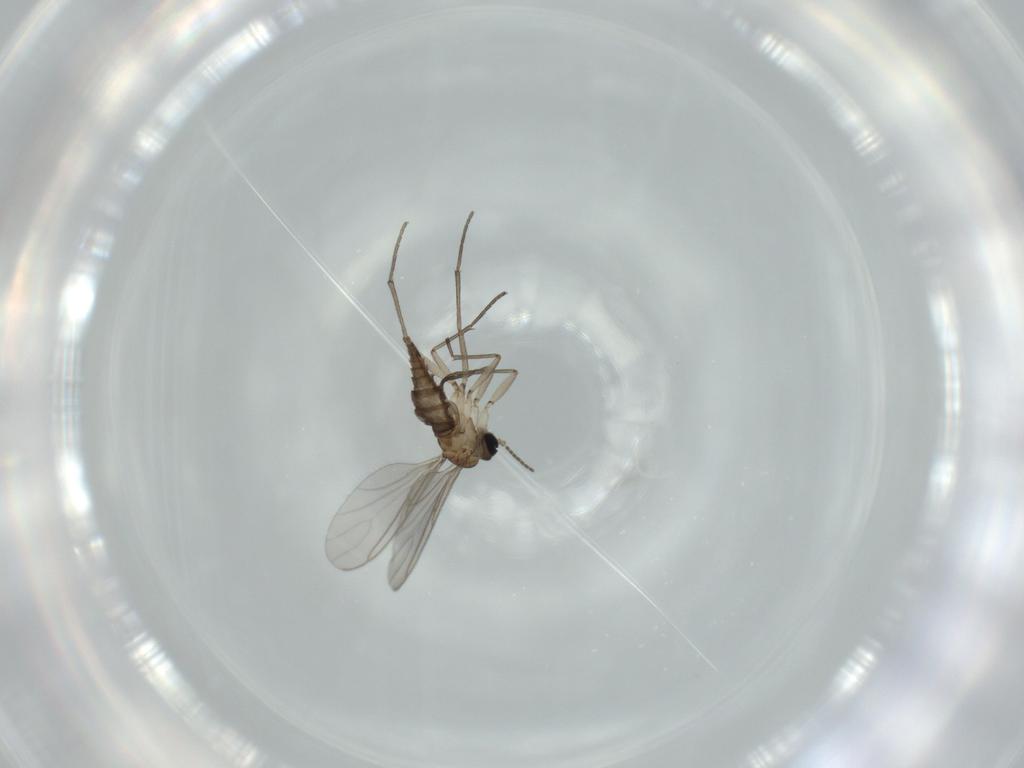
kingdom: Animalia
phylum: Arthropoda
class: Insecta
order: Diptera
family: Sciaridae
